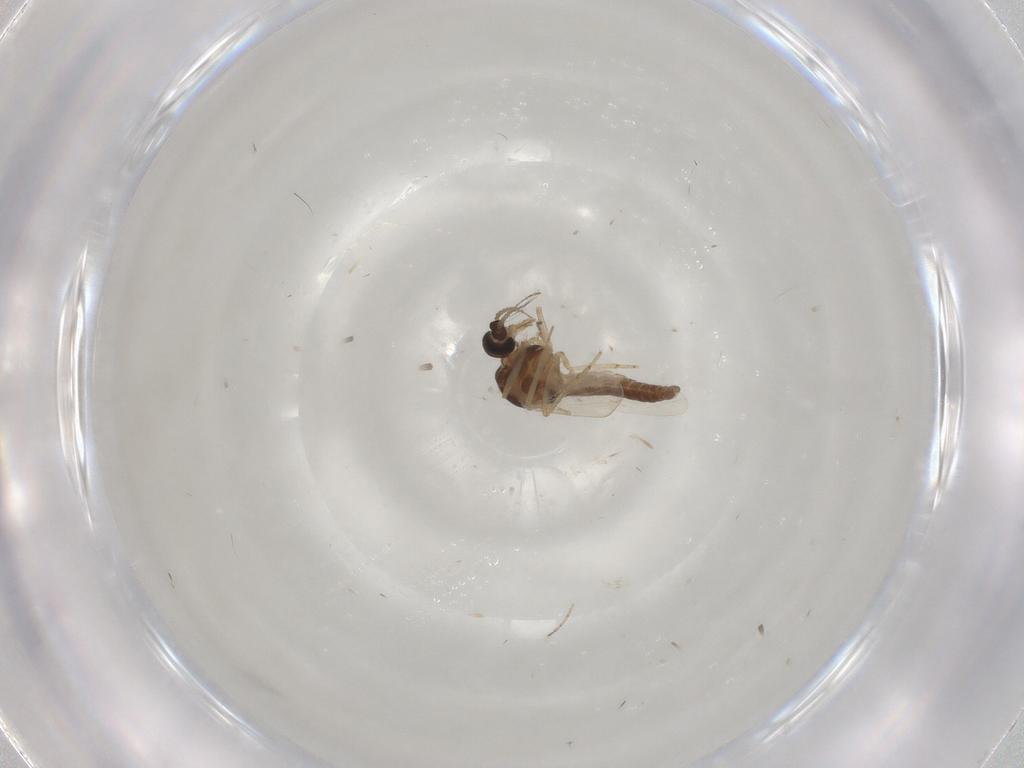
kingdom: Animalia
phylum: Arthropoda
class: Insecta
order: Diptera
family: Ceratopogonidae
